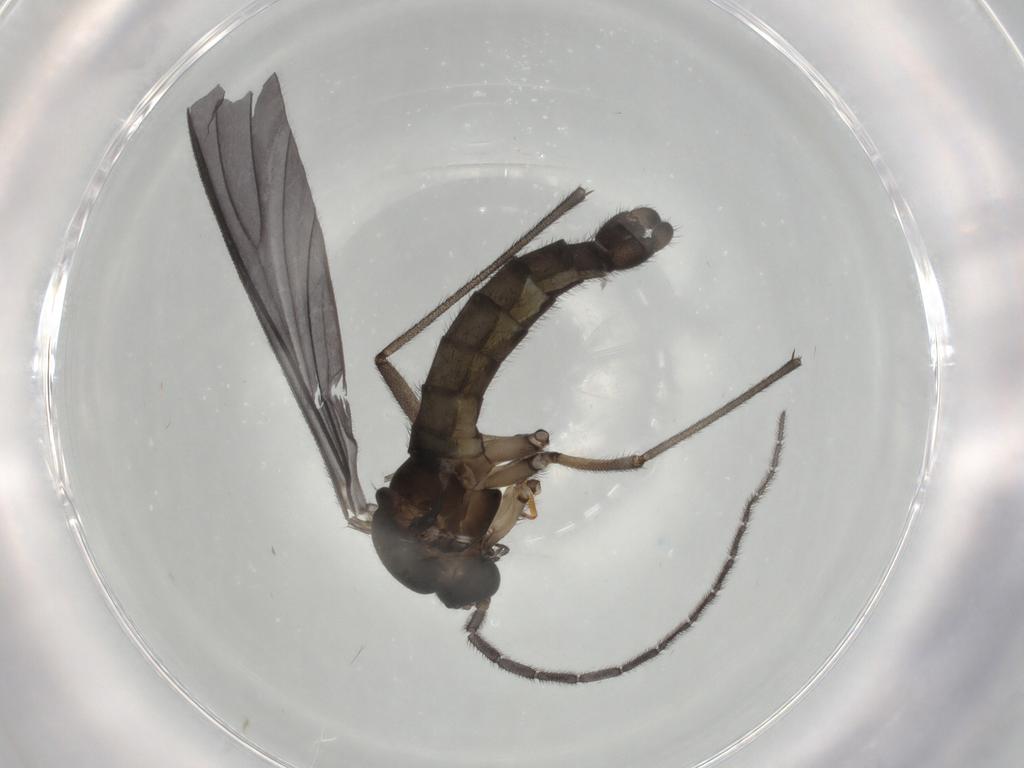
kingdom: Animalia
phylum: Arthropoda
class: Insecta
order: Diptera
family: Sciaridae
